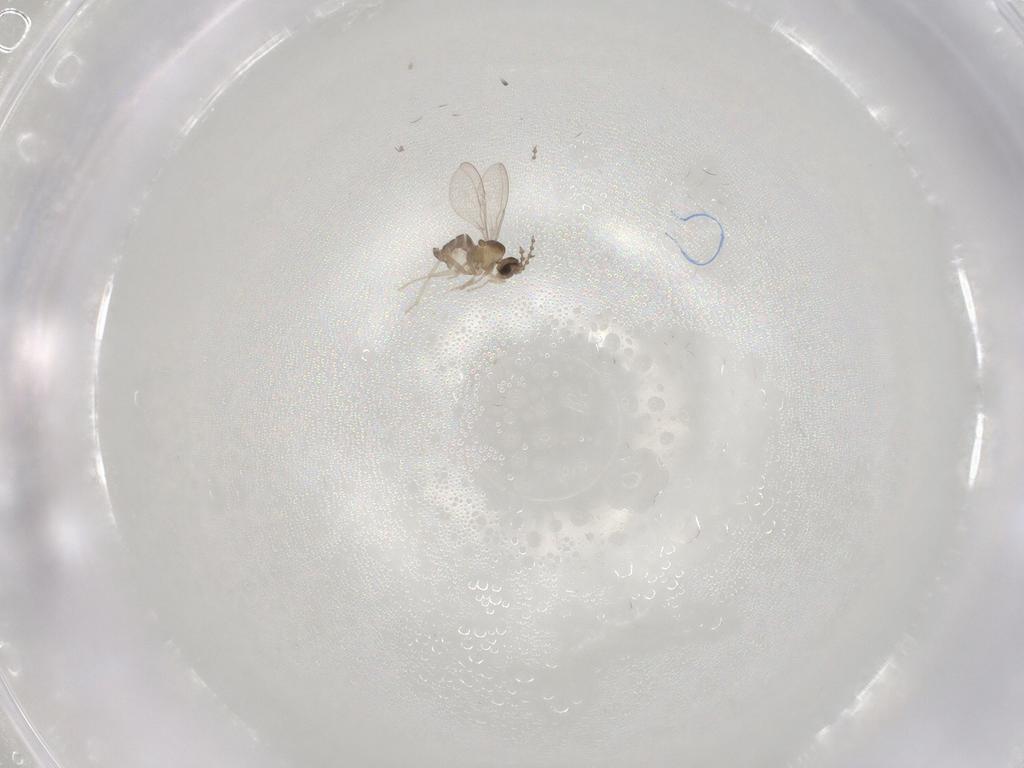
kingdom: Animalia
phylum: Arthropoda
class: Insecta
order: Diptera
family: Cecidomyiidae
